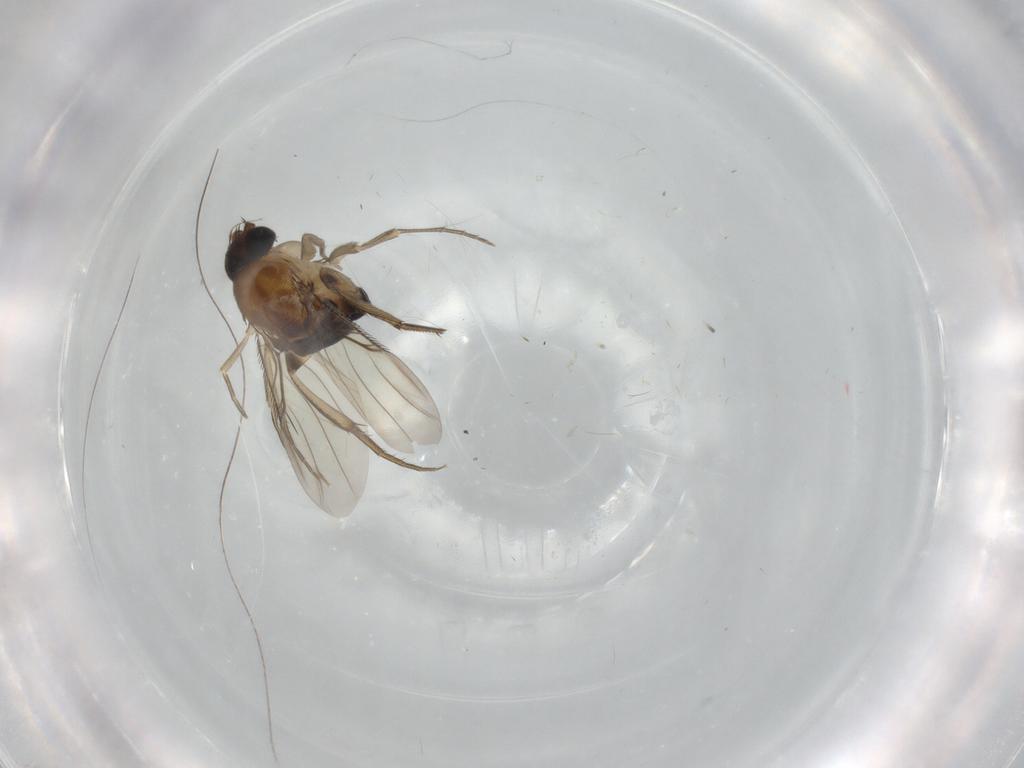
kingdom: Animalia
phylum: Arthropoda
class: Insecta
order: Diptera
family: Phoridae
